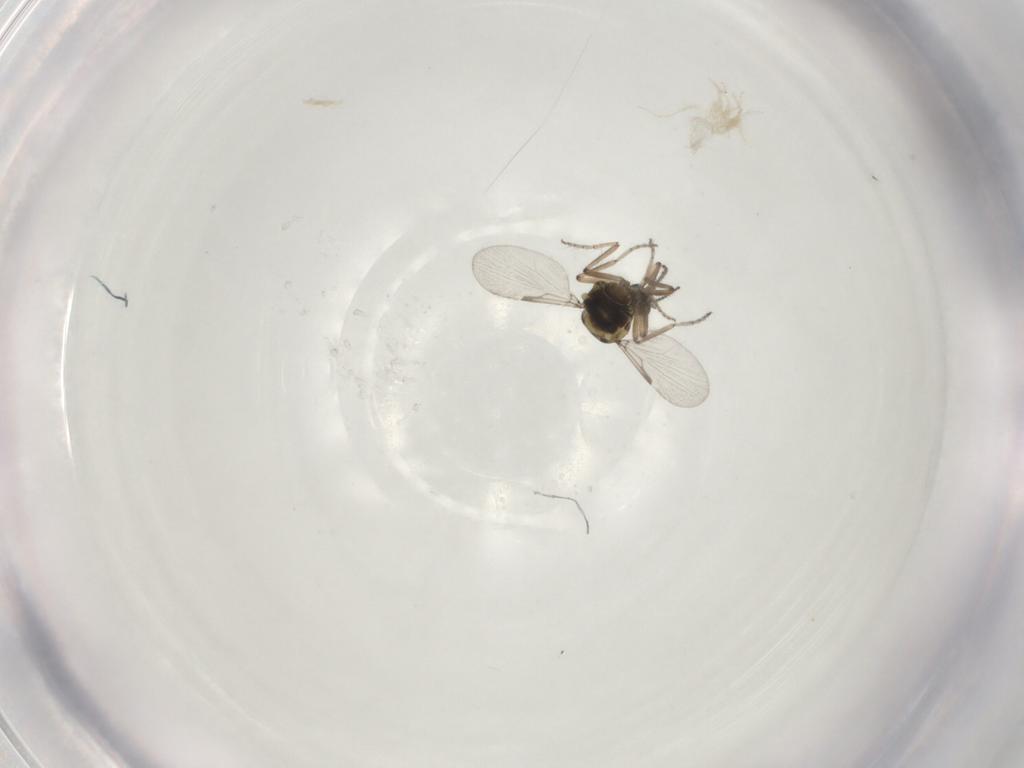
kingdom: Animalia
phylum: Arthropoda
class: Insecta
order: Diptera
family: Ceratopogonidae
